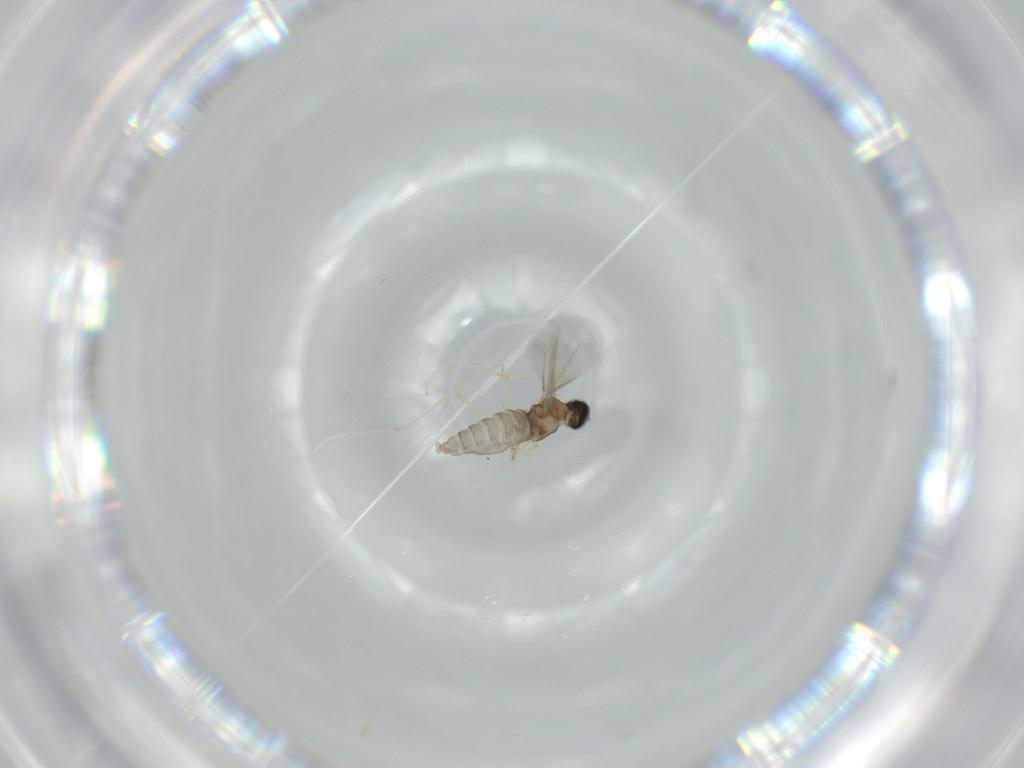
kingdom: Animalia
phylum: Arthropoda
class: Insecta
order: Diptera
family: Cecidomyiidae
